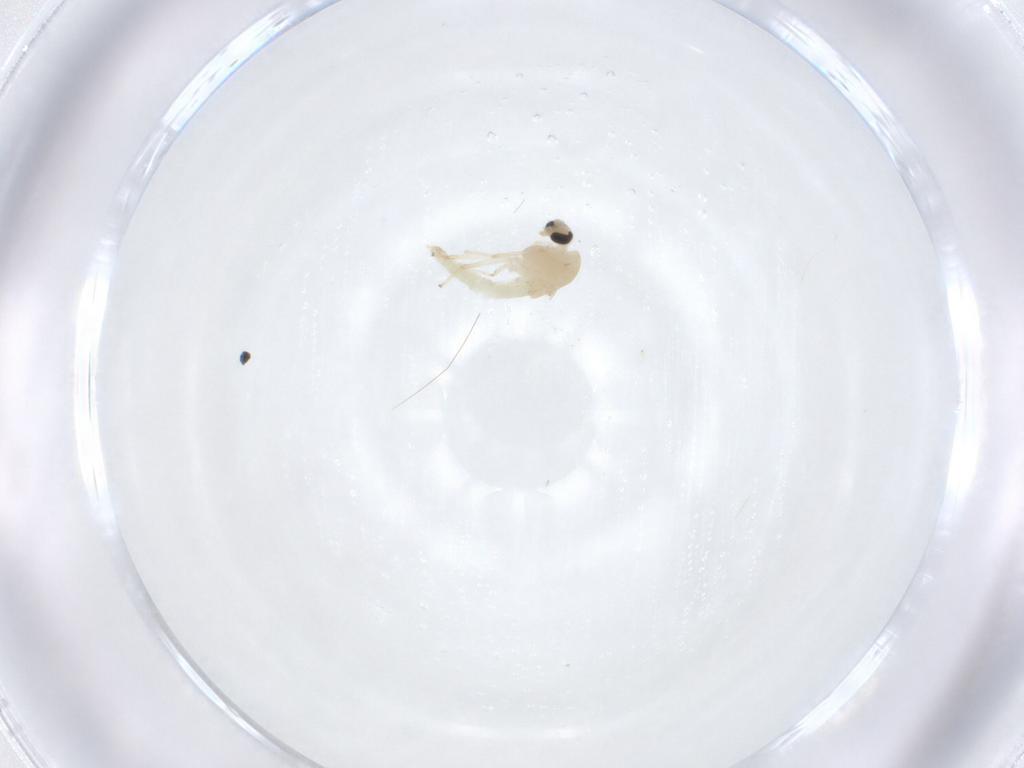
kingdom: Animalia
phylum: Arthropoda
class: Insecta
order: Diptera
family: Chironomidae
